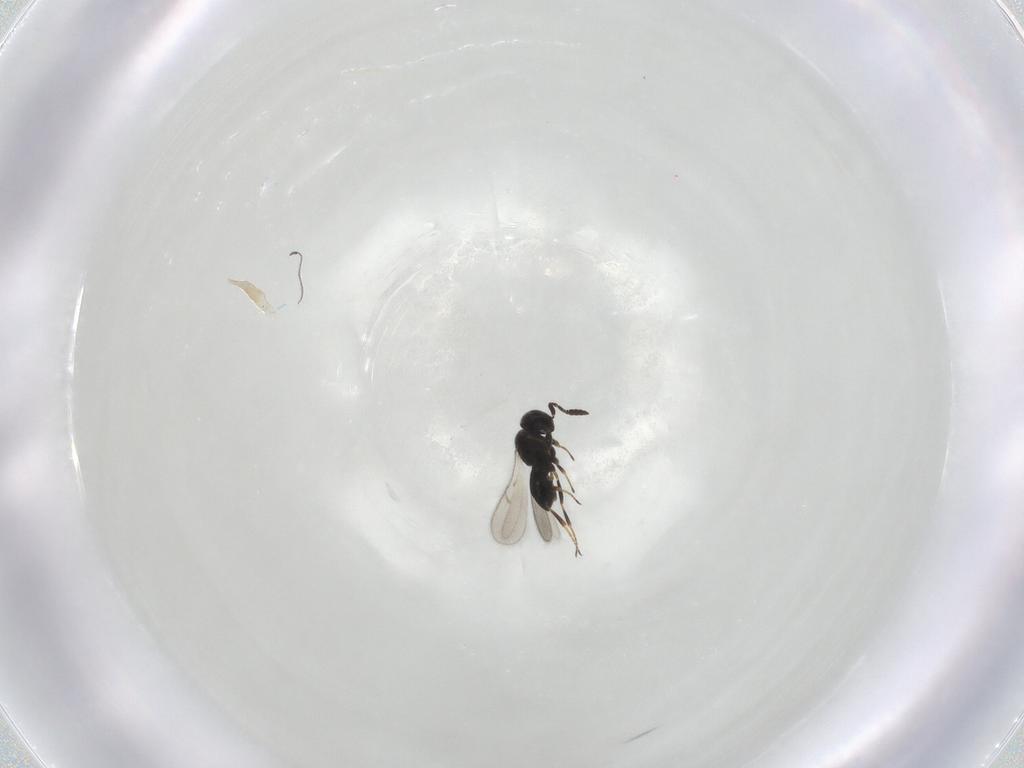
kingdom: Animalia
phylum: Arthropoda
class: Insecta
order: Hymenoptera
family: Scelionidae
